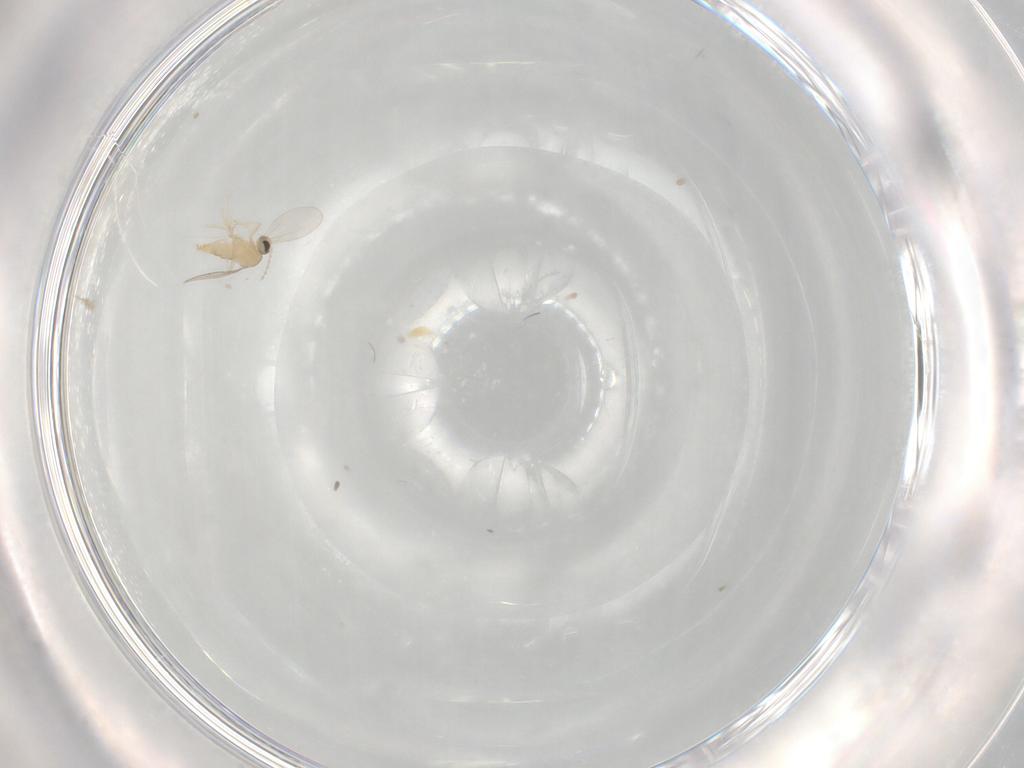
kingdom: Animalia
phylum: Arthropoda
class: Insecta
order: Diptera
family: Cecidomyiidae
